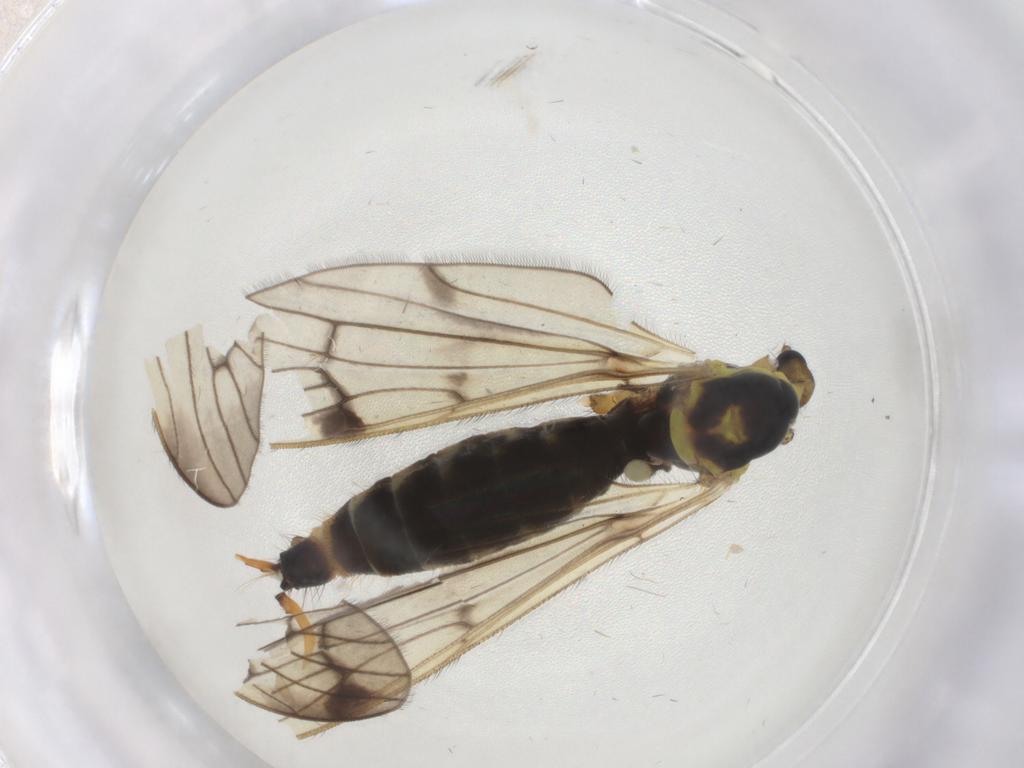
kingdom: Animalia
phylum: Arthropoda
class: Insecta
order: Diptera
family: Limoniidae
